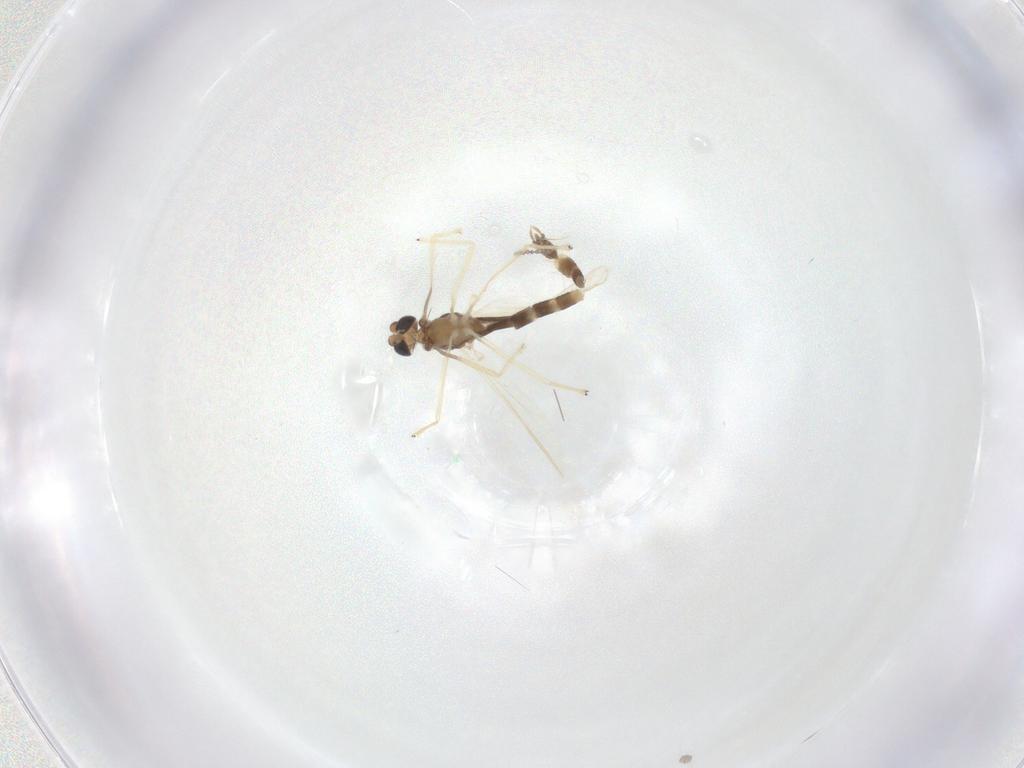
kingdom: Animalia
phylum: Arthropoda
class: Insecta
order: Diptera
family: Chironomidae
